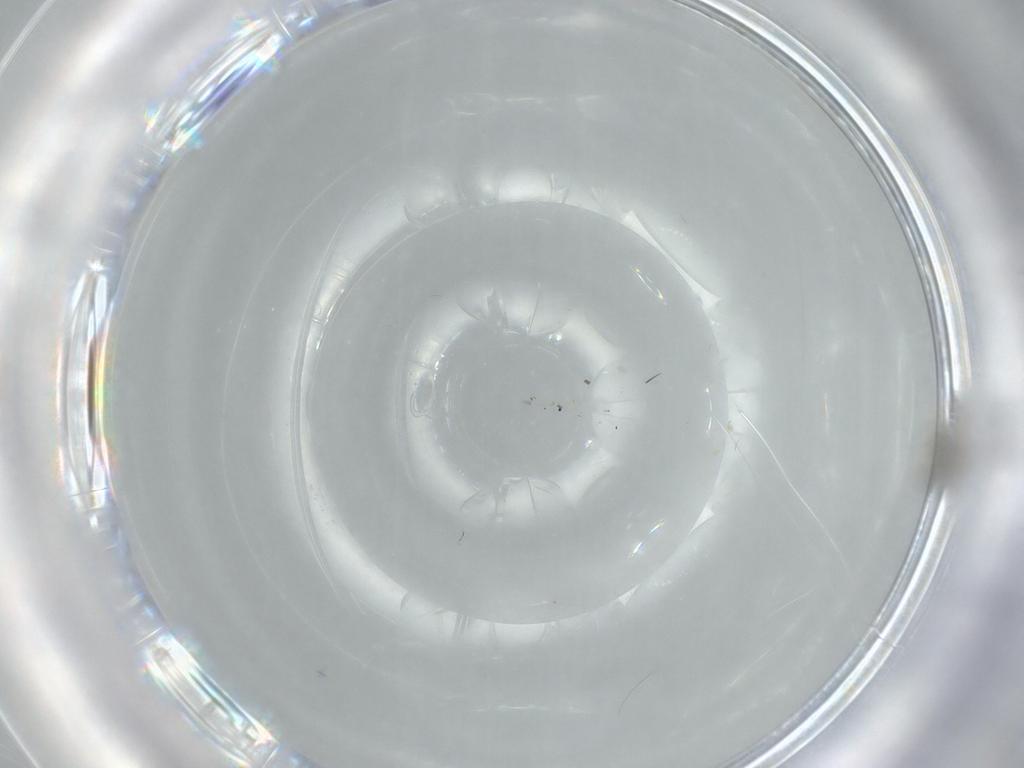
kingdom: Animalia
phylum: Arthropoda
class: Insecta
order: Diptera
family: Cecidomyiidae
